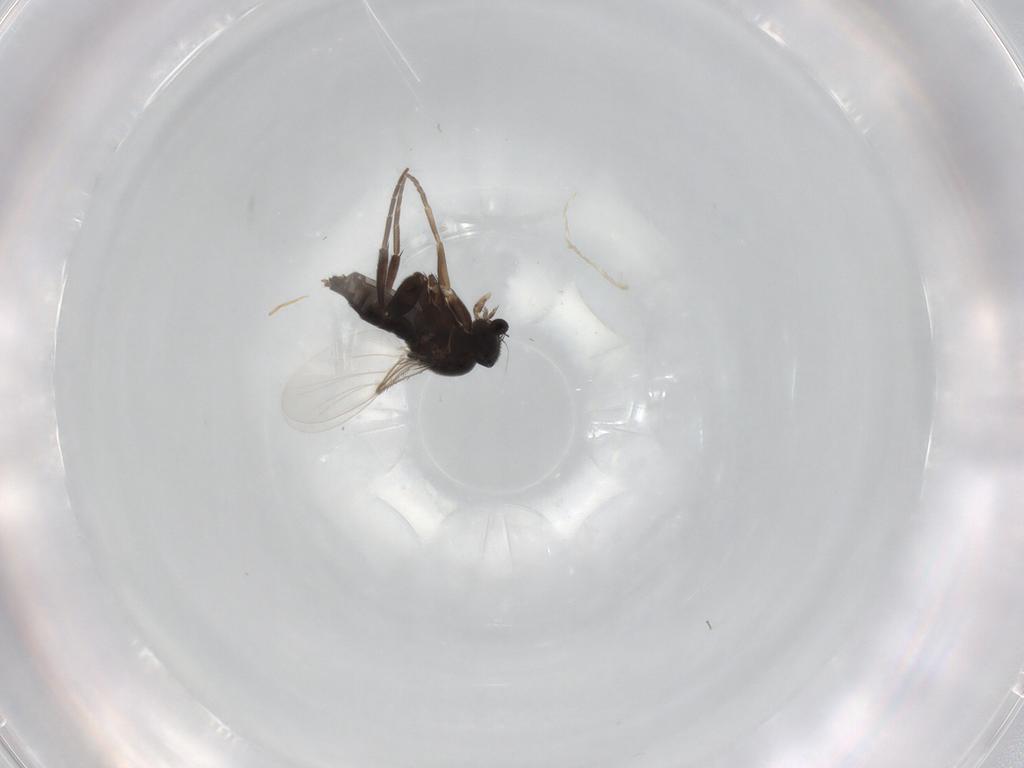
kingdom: Animalia
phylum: Arthropoda
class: Insecta
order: Diptera
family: Phoridae
